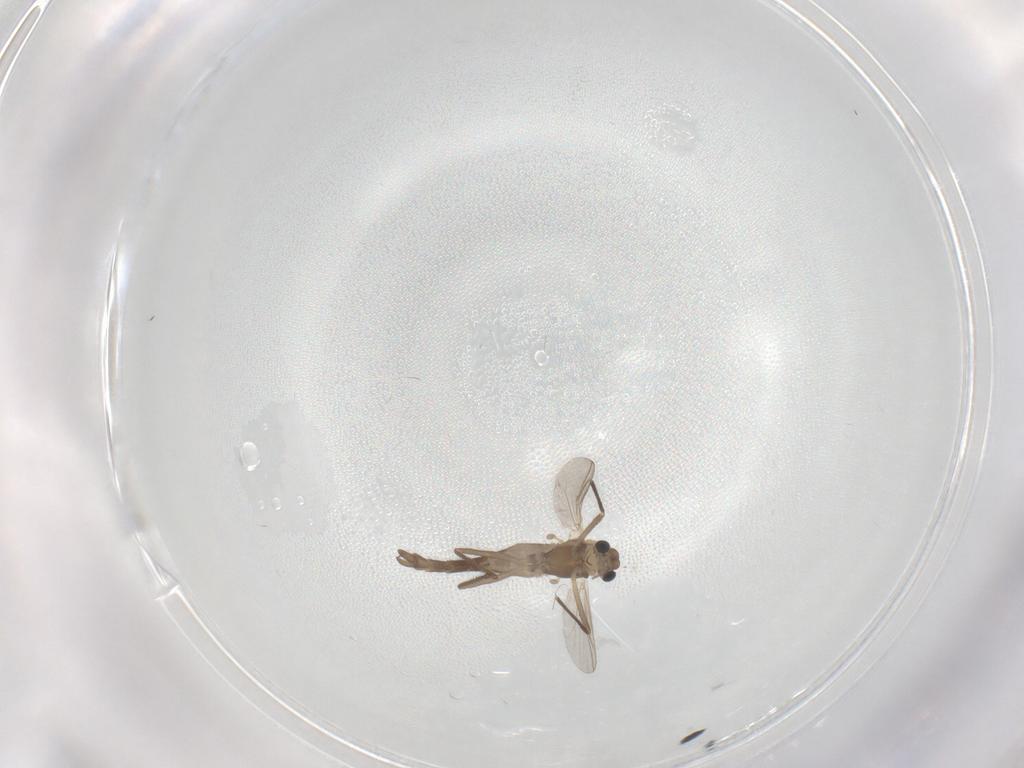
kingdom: Animalia
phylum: Arthropoda
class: Insecta
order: Diptera
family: Chironomidae
